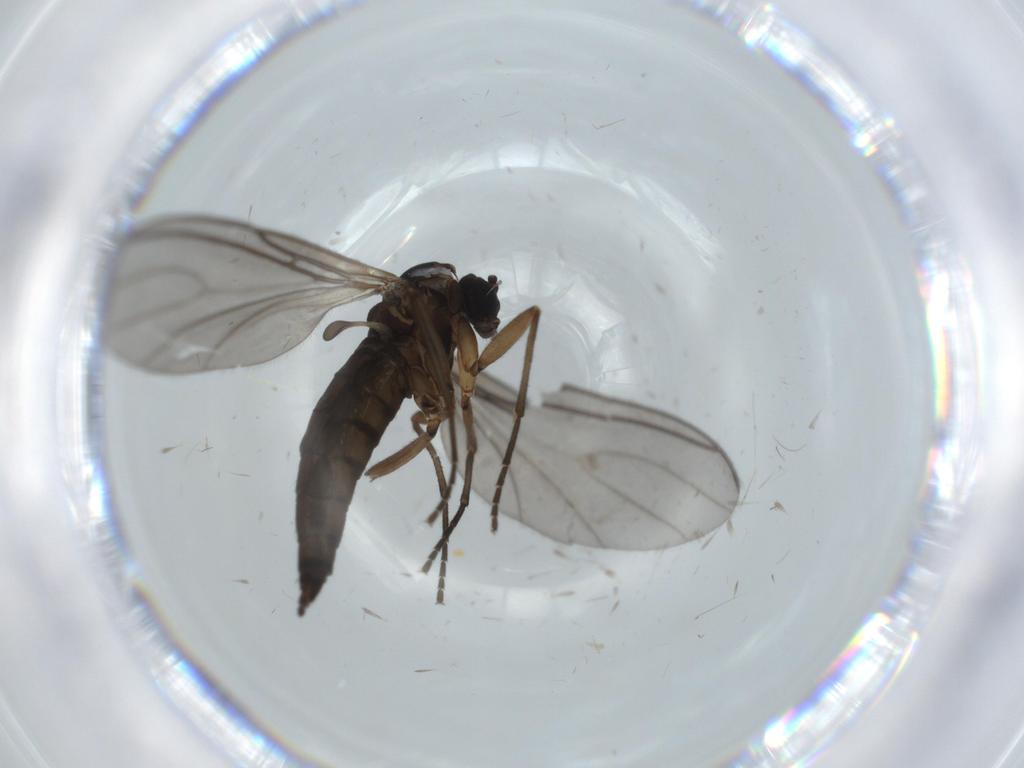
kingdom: Animalia
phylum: Arthropoda
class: Insecta
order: Diptera
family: Sciaridae
